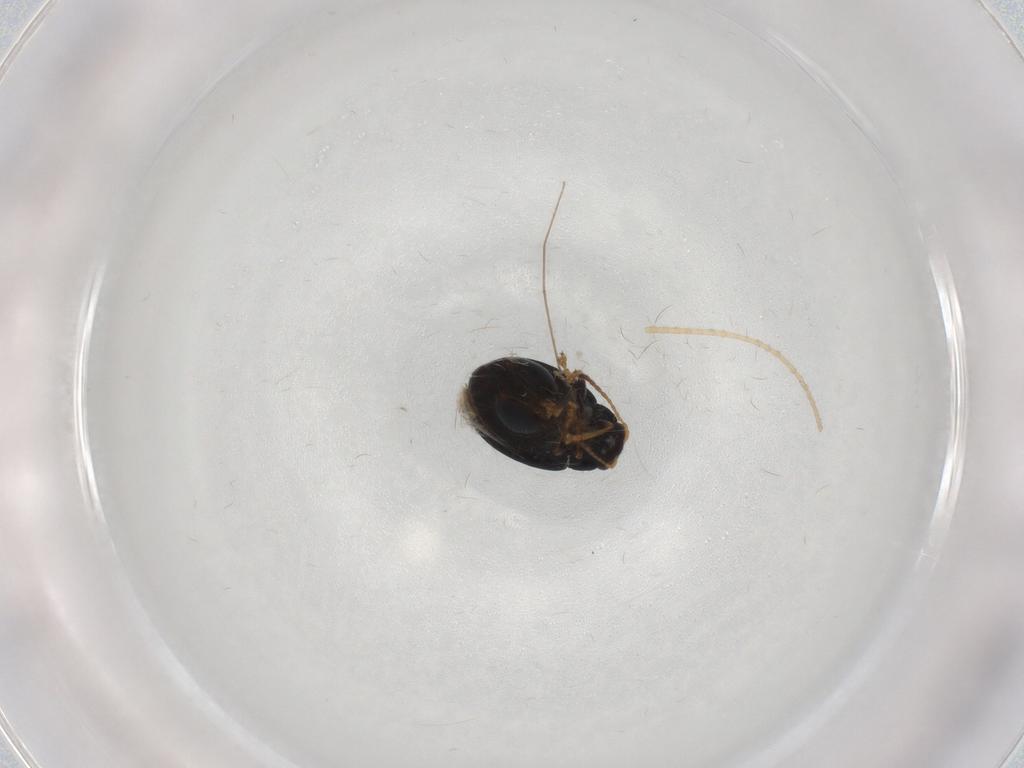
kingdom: Animalia
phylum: Arthropoda
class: Insecta
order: Coleoptera
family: Chrysomelidae
